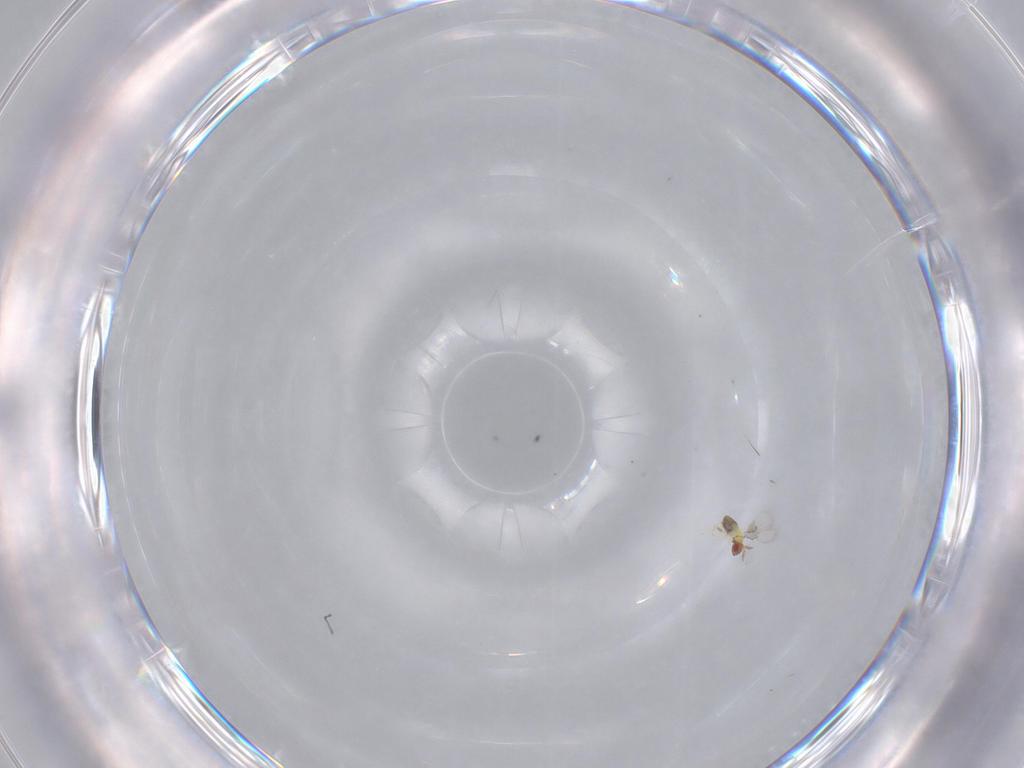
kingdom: Animalia
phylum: Arthropoda
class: Insecta
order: Hymenoptera
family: Trichogrammatidae
